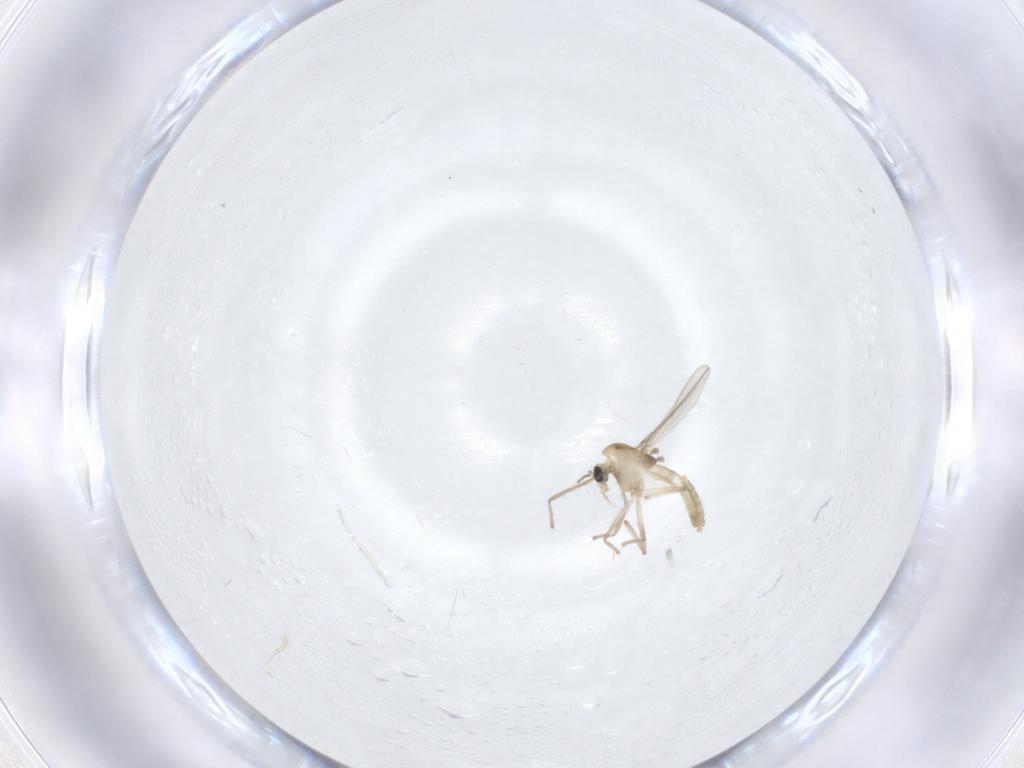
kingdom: Animalia
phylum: Arthropoda
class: Insecta
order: Diptera
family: Chironomidae
